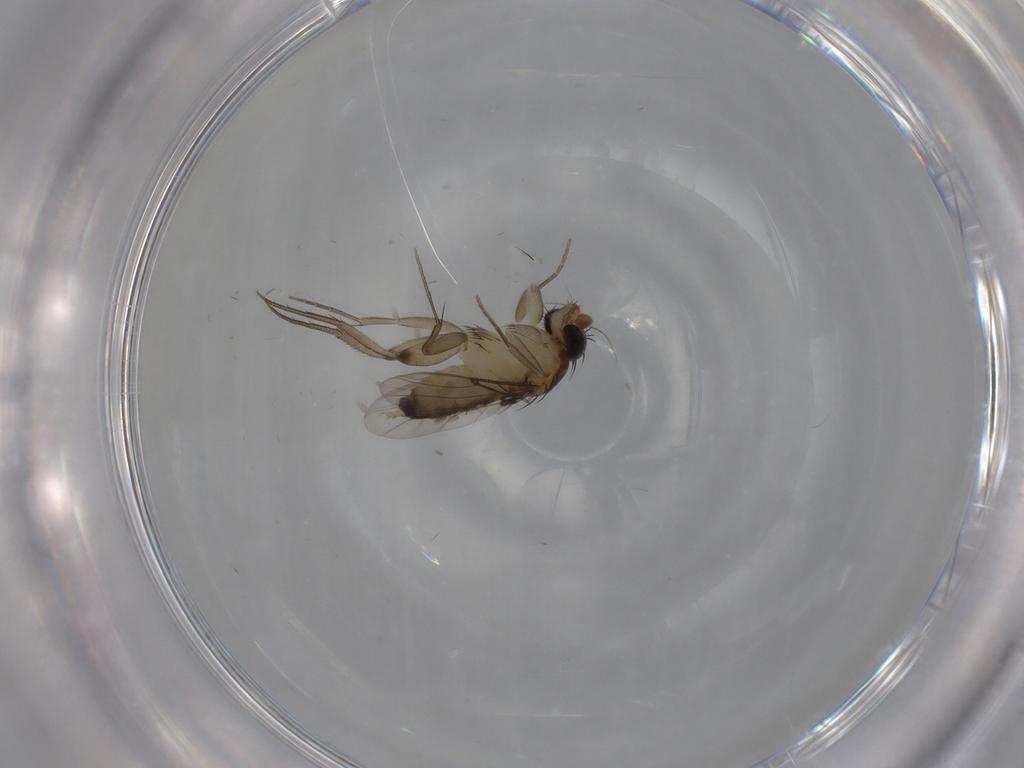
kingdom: Animalia
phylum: Arthropoda
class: Insecta
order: Diptera
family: Phoridae
